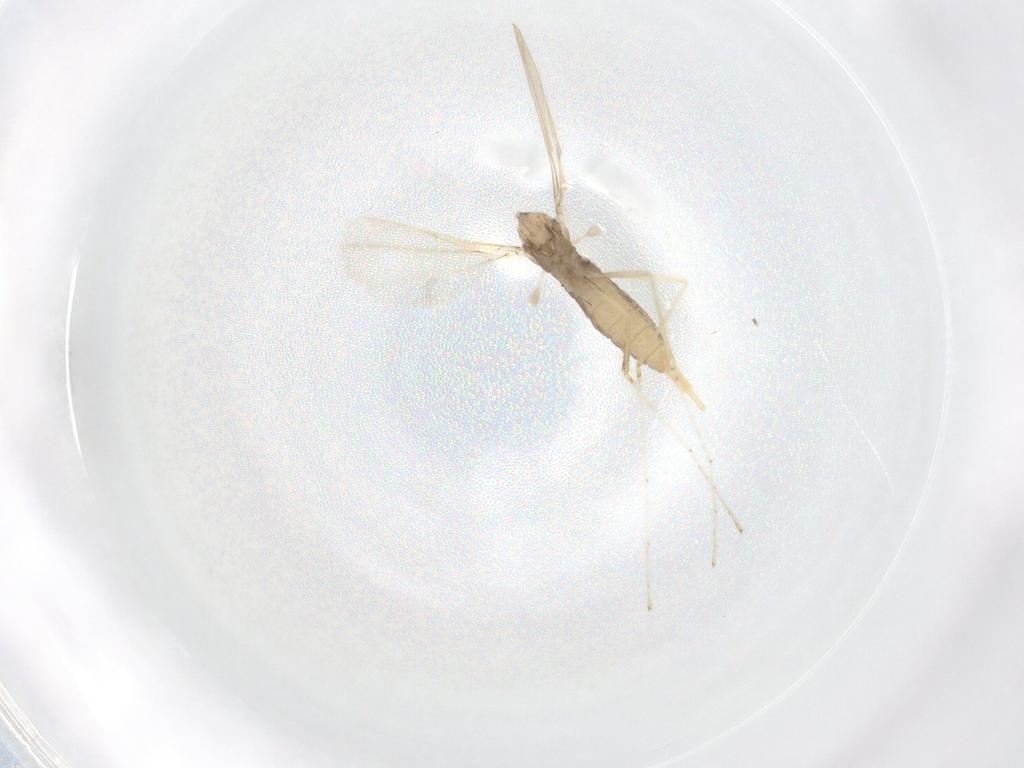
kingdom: Animalia
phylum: Arthropoda
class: Insecta
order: Diptera
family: Cecidomyiidae
